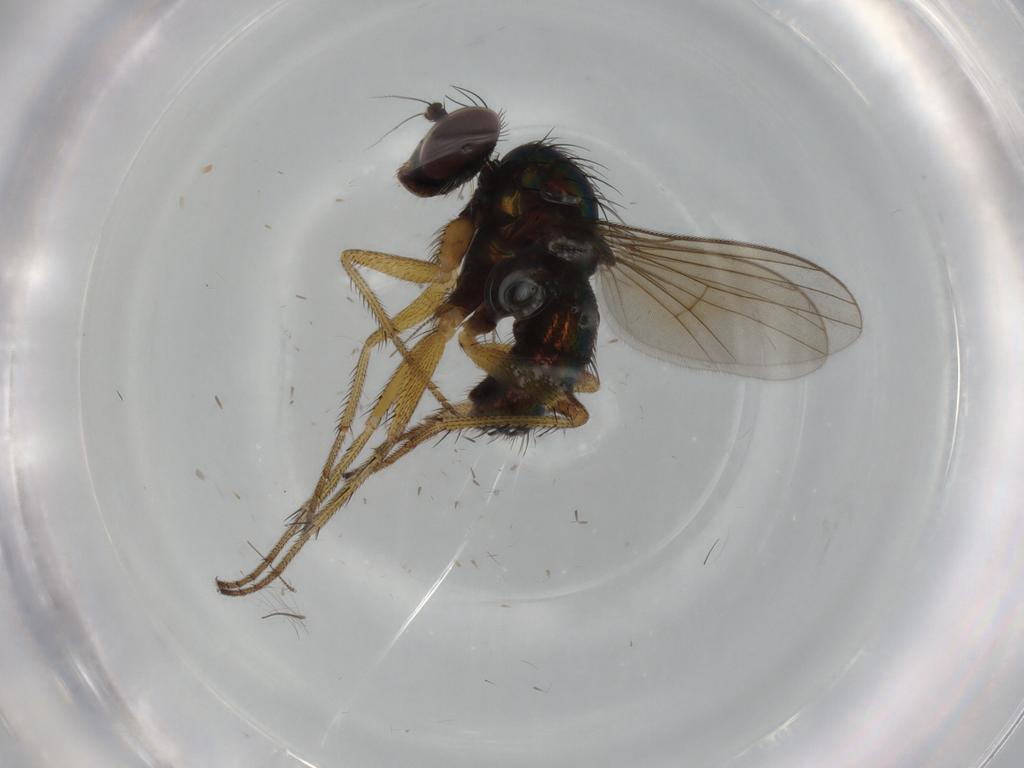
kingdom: Animalia
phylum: Arthropoda
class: Insecta
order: Diptera
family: Dolichopodidae
